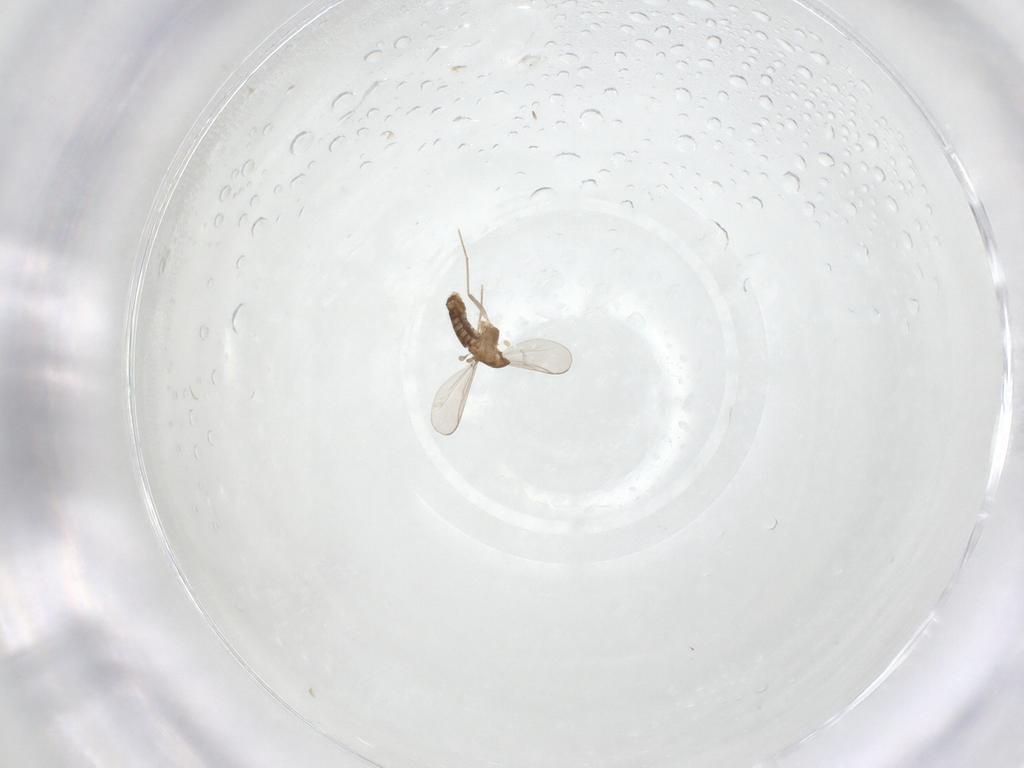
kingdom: Animalia
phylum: Arthropoda
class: Insecta
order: Diptera
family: Chironomidae
